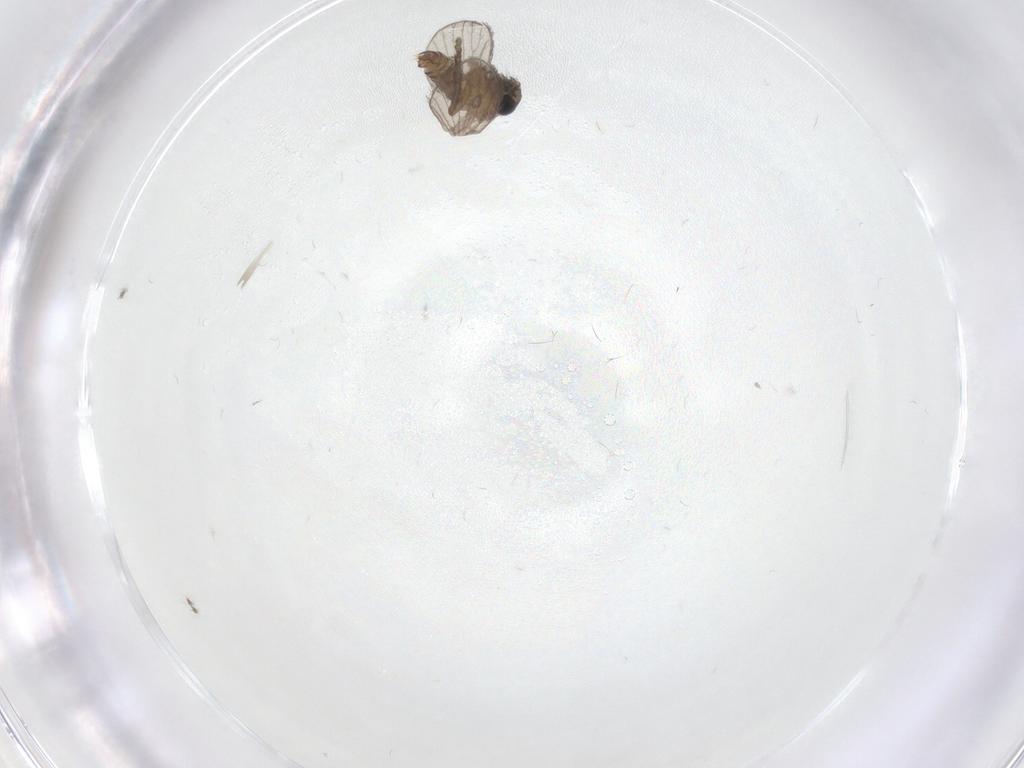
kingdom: Animalia
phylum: Arthropoda
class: Insecta
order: Diptera
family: Psychodidae
